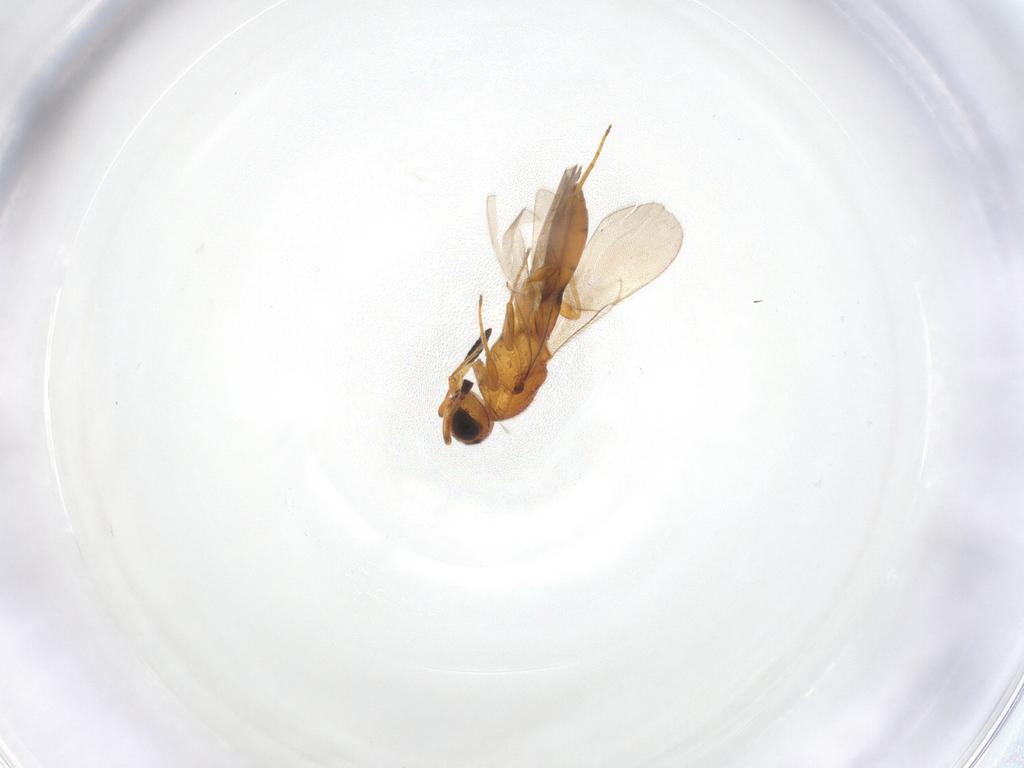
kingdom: Animalia
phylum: Arthropoda
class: Insecta
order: Hymenoptera
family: Scelionidae
